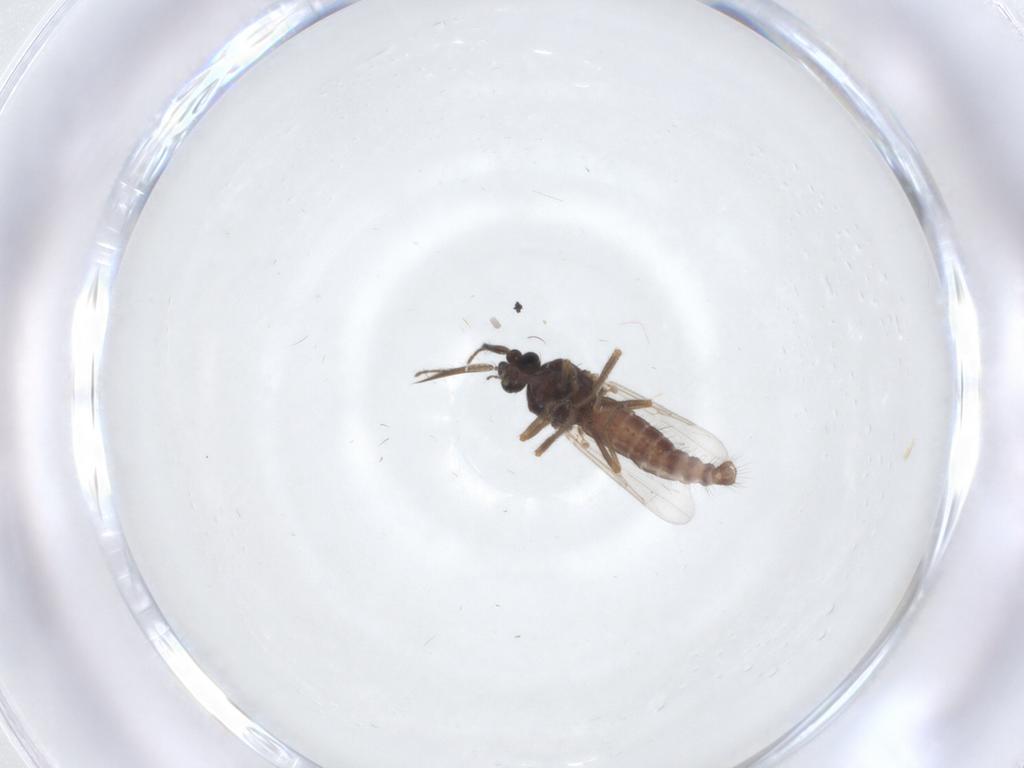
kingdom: Animalia
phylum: Arthropoda
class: Insecta
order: Diptera
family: Ceratopogonidae
